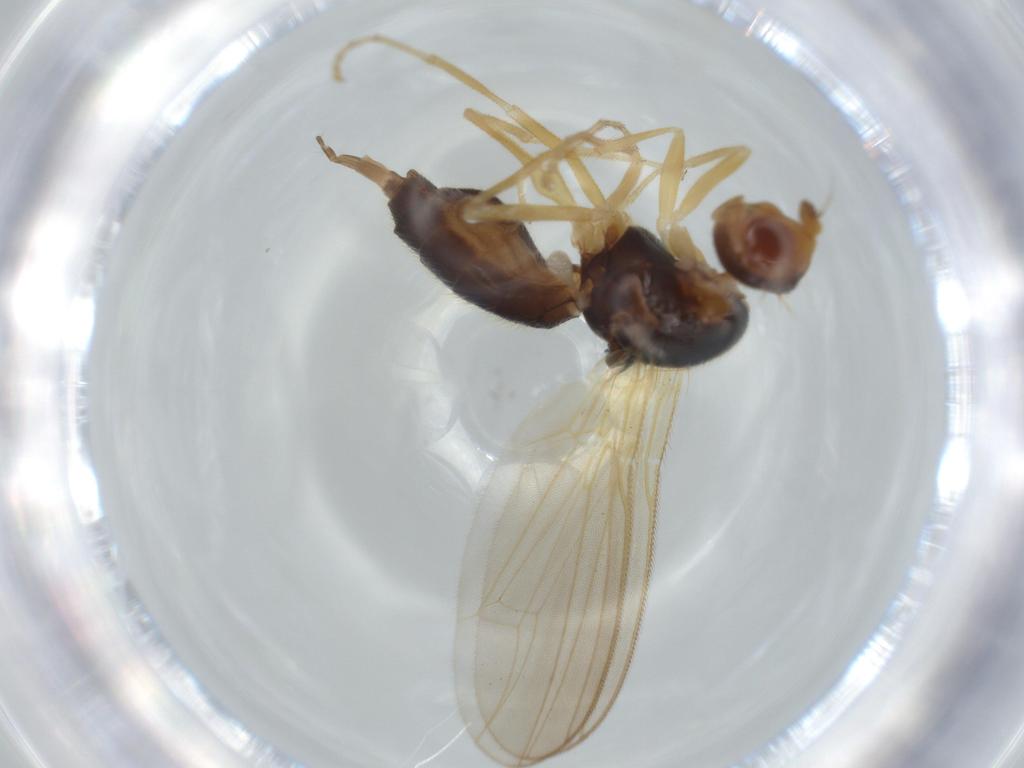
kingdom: Animalia
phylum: Arthropoda
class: Insecta
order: Diptera
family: Psilidae
